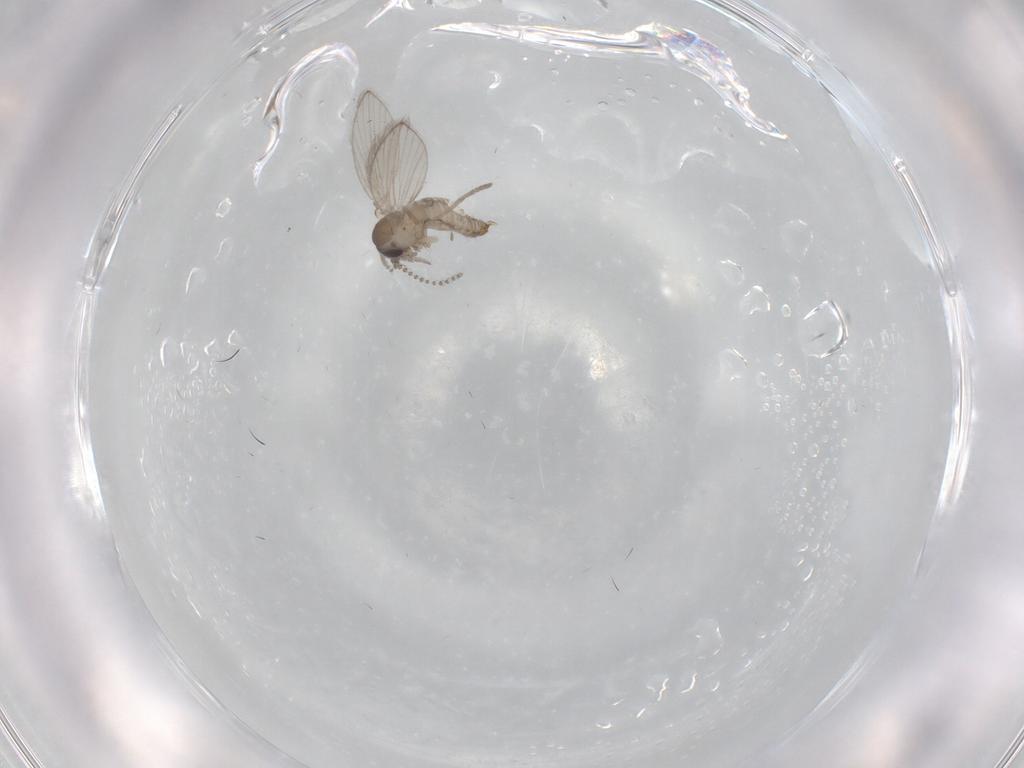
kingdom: Animalia
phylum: Arthropoda
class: Insecta
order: Diptera
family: Psychodidae
